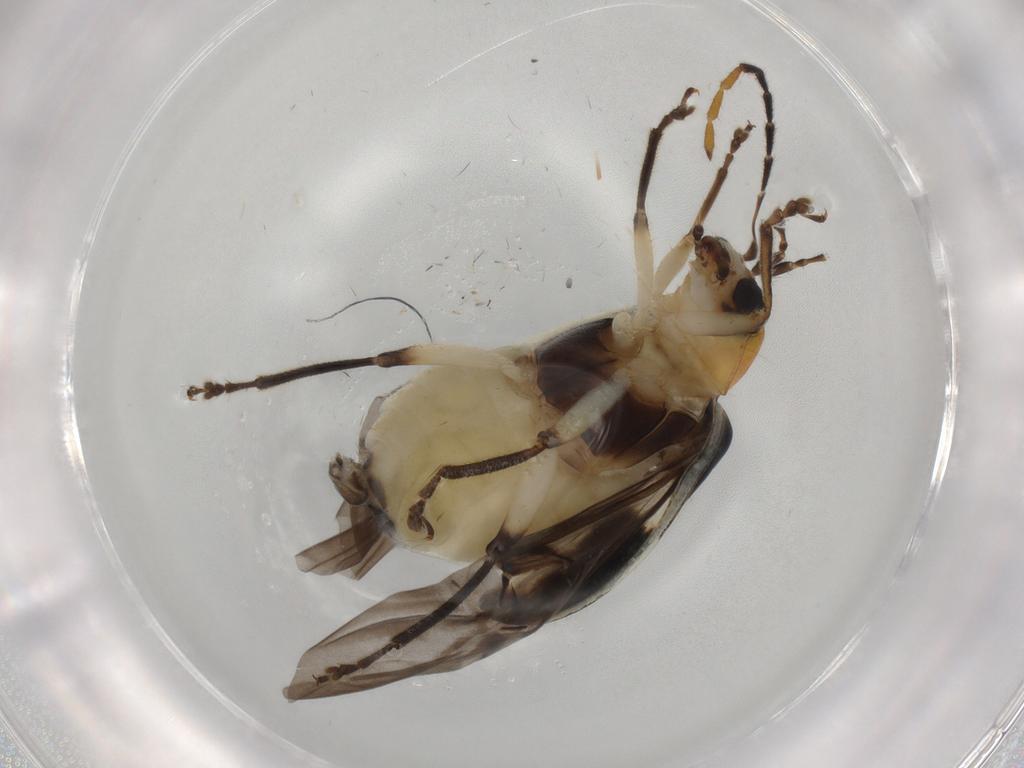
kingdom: Animalia
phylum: Arthropoda
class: Insecta
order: Coleoptera
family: Chrysomelidae
